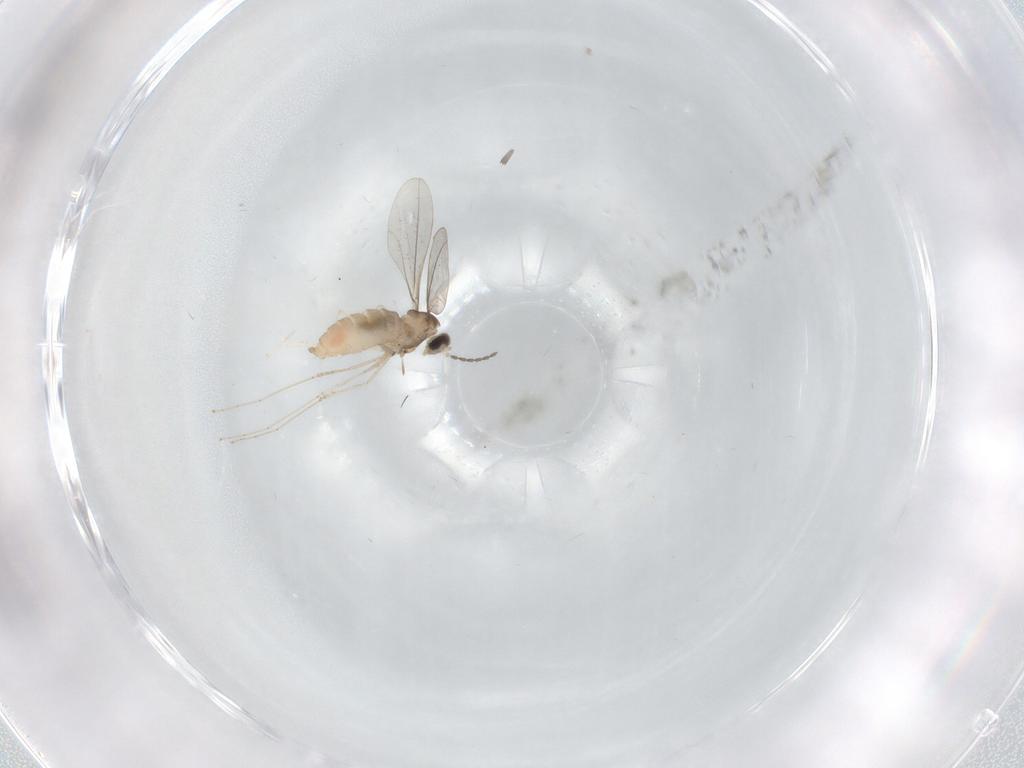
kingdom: Animalia
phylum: Arthropoda
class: Insecta
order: Diptera
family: Cecidomyiidae
